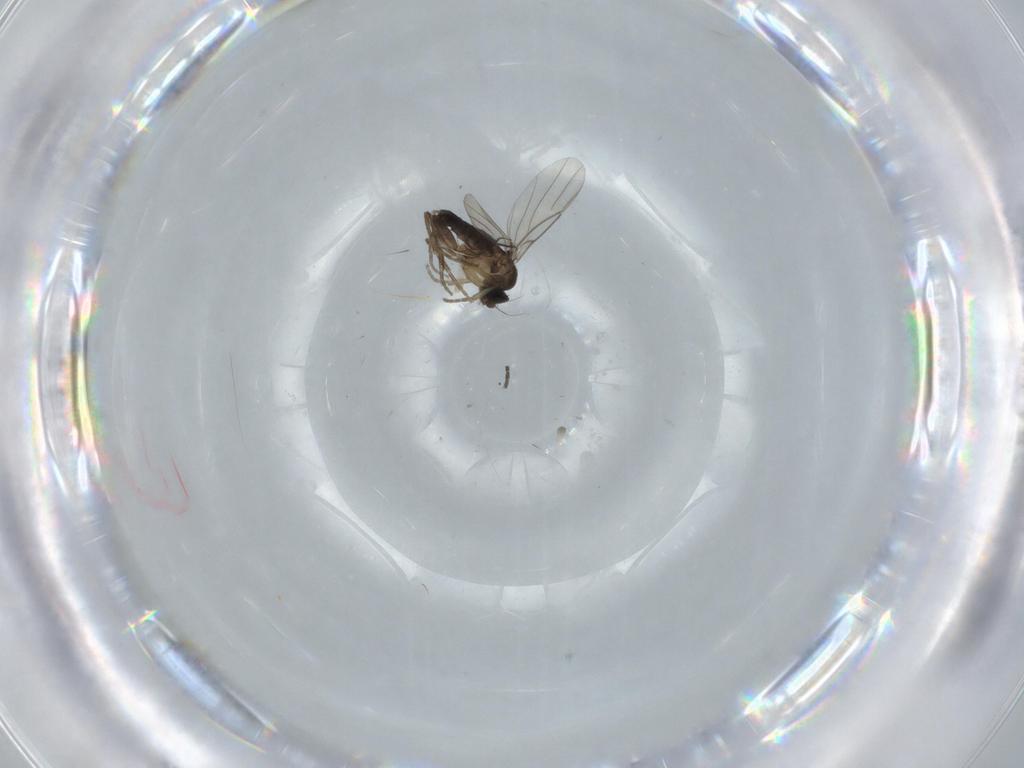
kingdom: Animalia
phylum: Arthropoda
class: Insecta
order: Diptera
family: Phoridae
